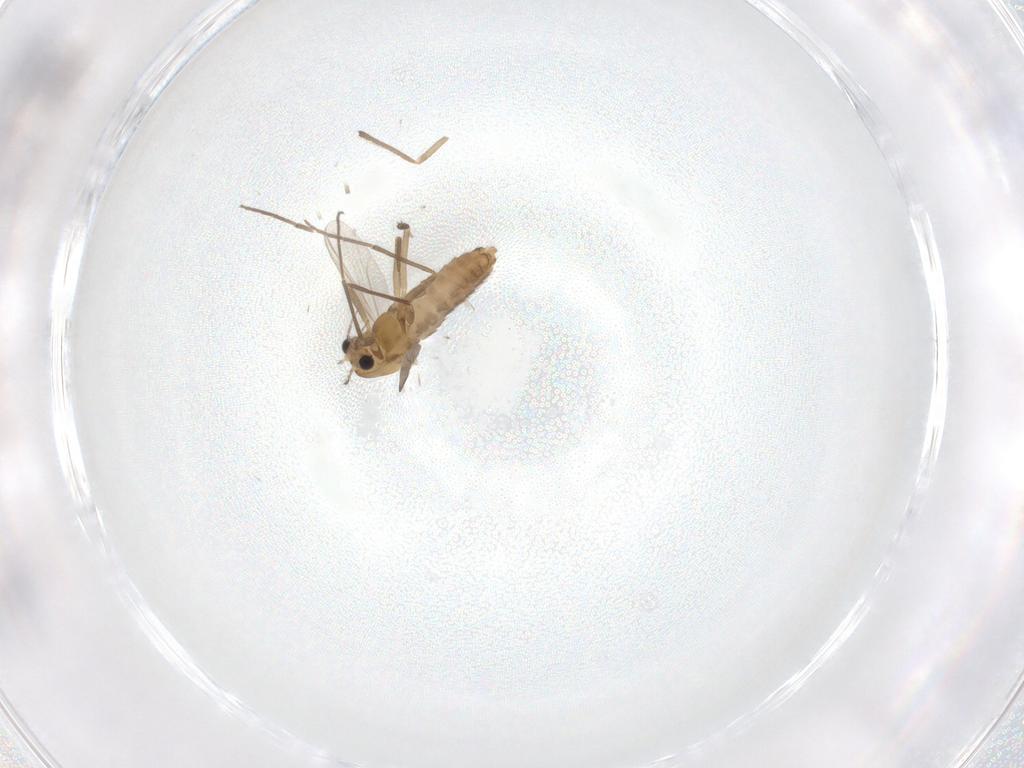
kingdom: Animalia
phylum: Arthropoda
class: Insecta
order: Diptera
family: Chironomidae
